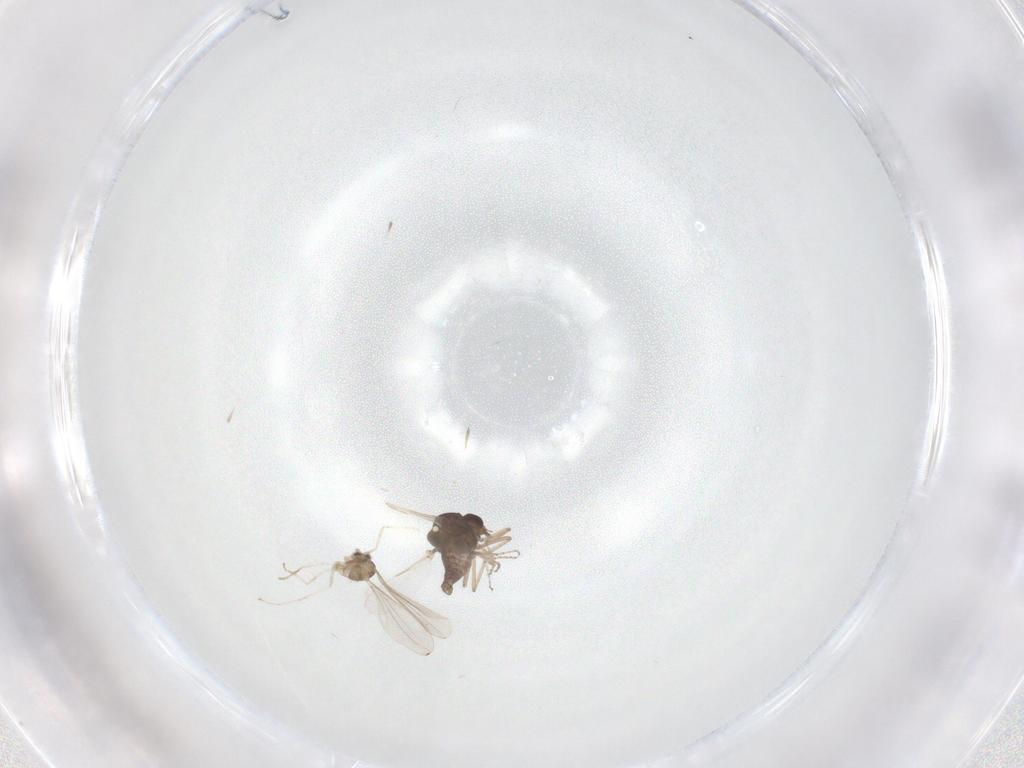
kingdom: Animalia
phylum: Arthropoda
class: Insecta
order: Diptera
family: Ceratopogonidae
